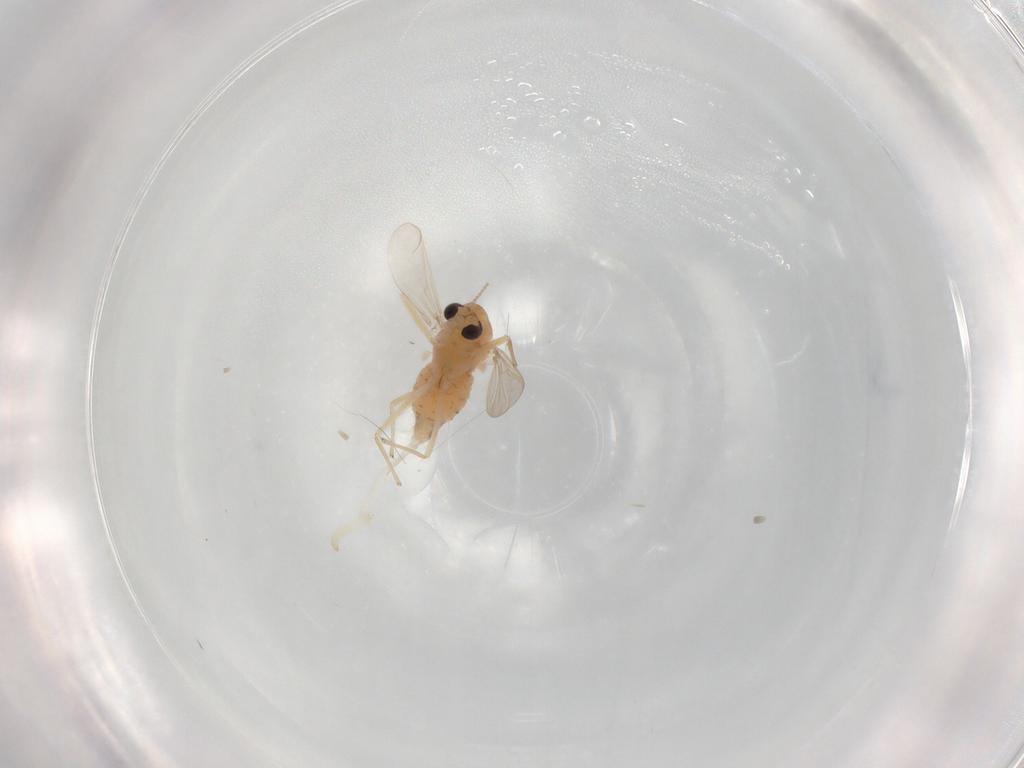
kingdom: Animalia
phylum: Arthropoda
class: Insecta
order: Diptera
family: Chironomidae
